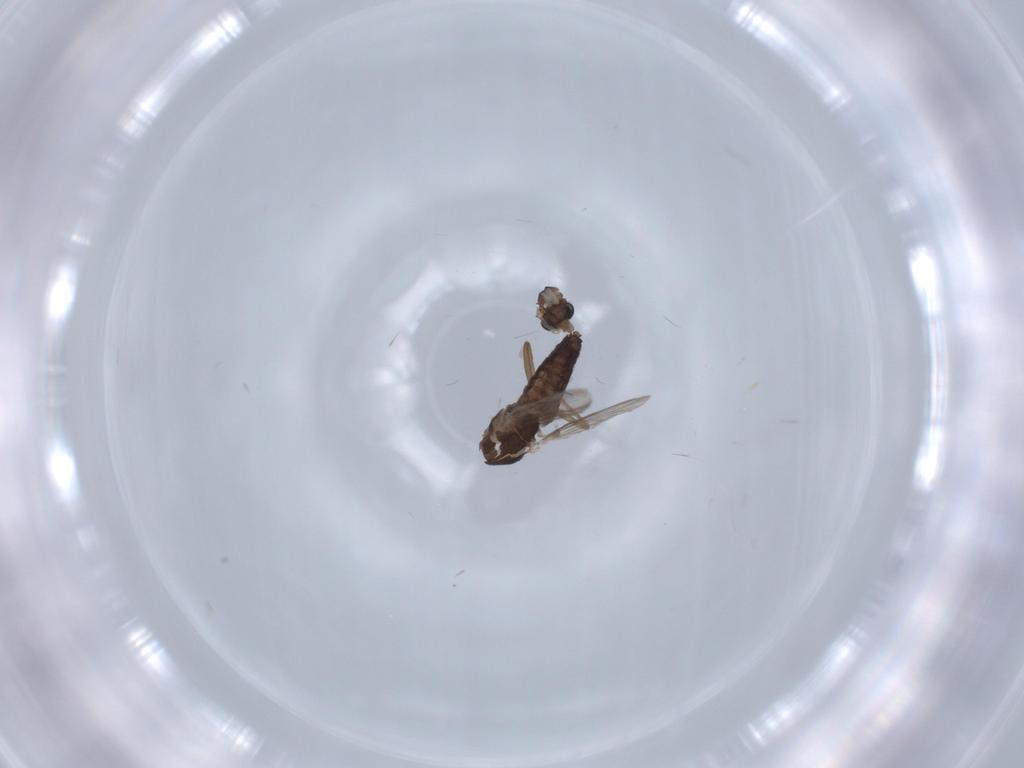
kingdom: Animalia
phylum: Arthropoda
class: Insecta
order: Diptera
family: Chironomidae
